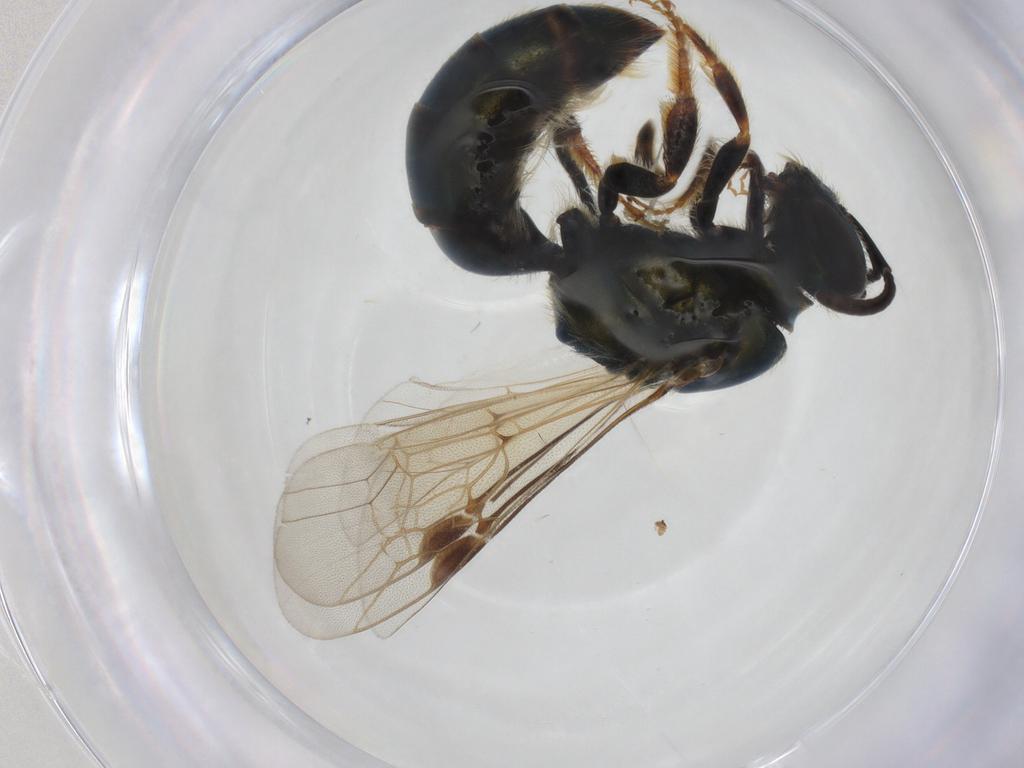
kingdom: Animalia
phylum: Arthropoda
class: Insecta
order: Hymenoptera
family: Halictidae
